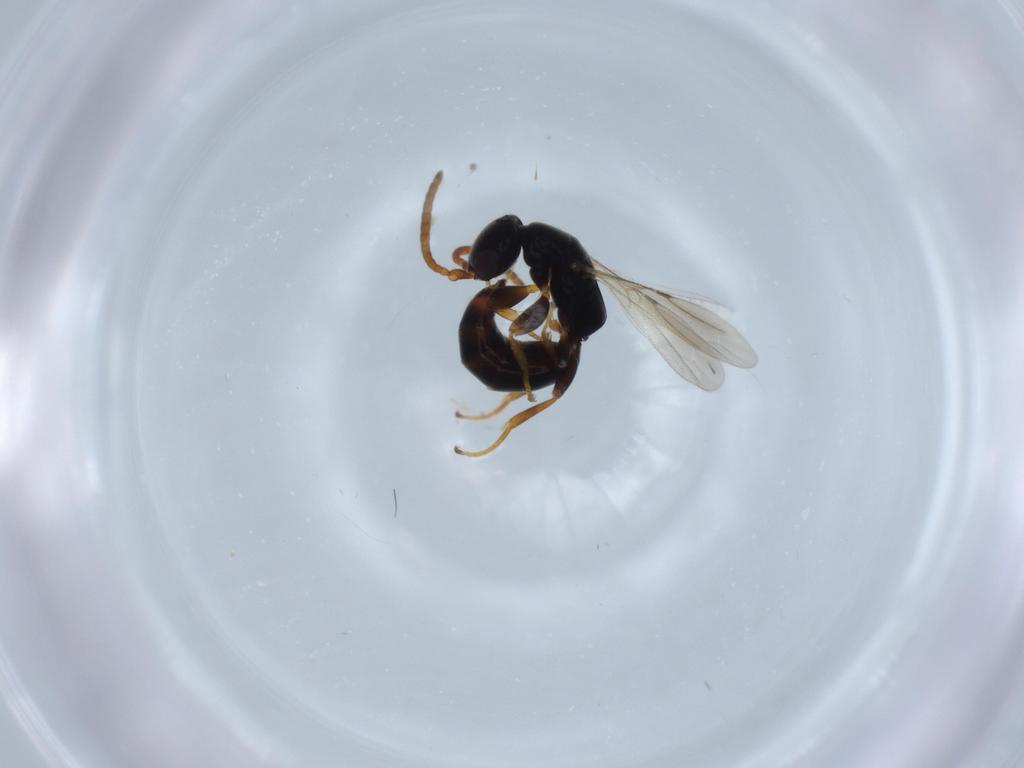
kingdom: Animalia
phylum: Arthropoda
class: Insecta
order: Hymenoptera
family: Bethylidae
